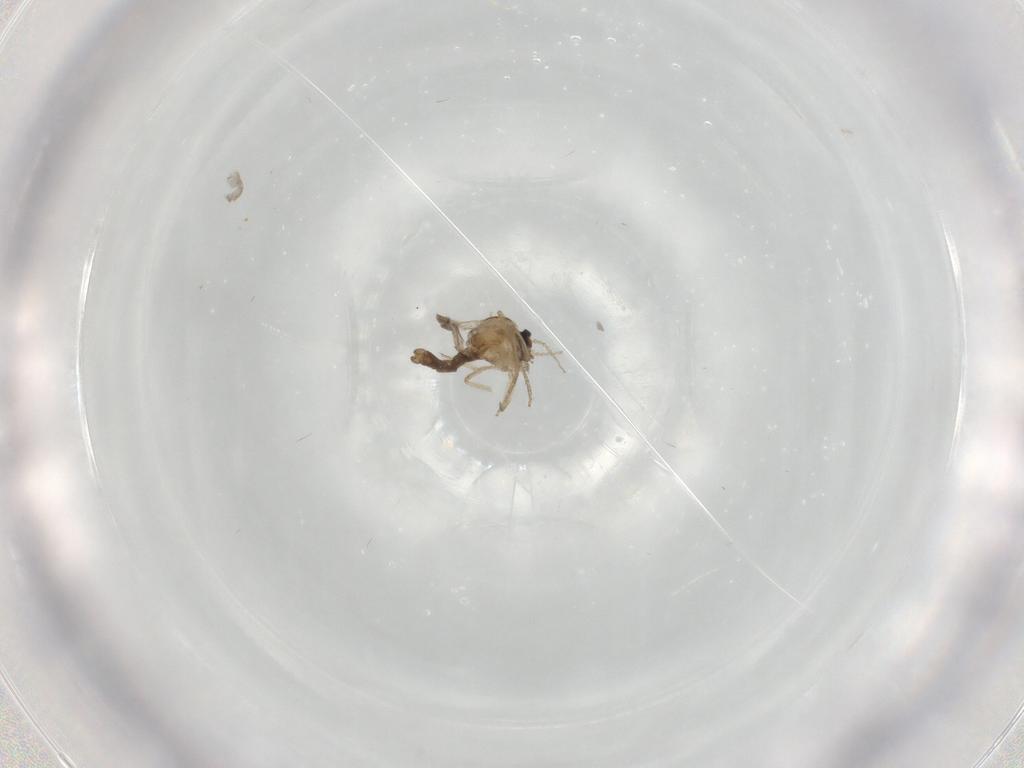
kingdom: Animalia
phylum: Arthropoda
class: Insecta
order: Diptera
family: Ceratopogonidae
